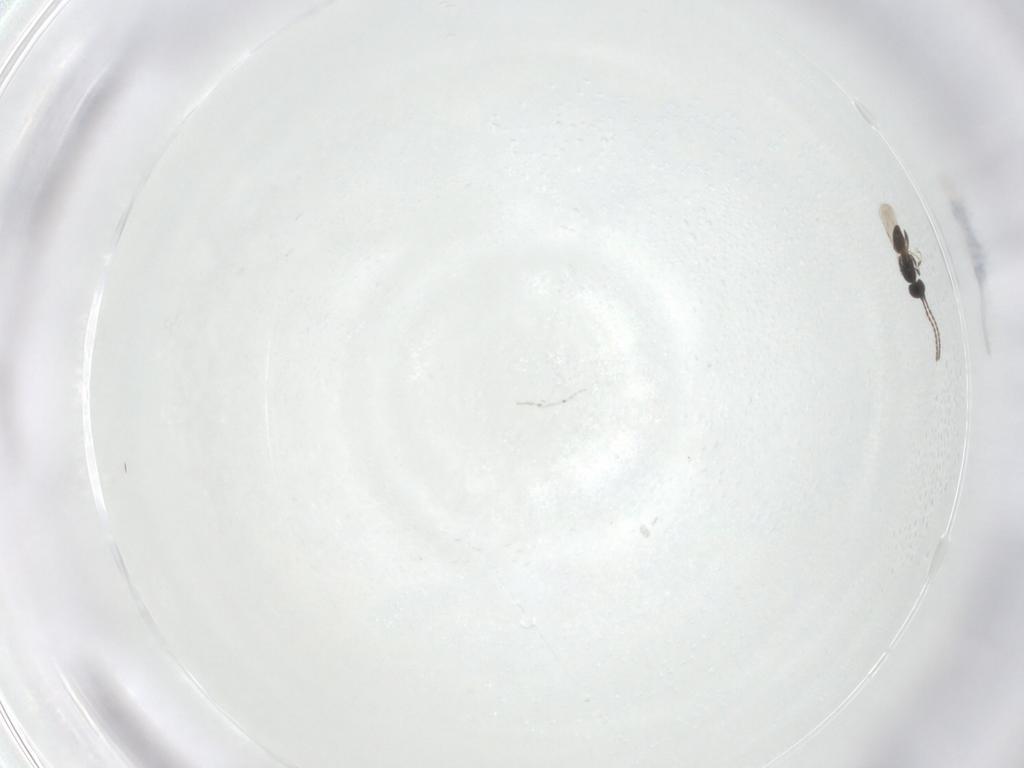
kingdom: Animalia
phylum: Arthropoda
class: Insecta
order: Hymenoptera
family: Ceraphronidae
